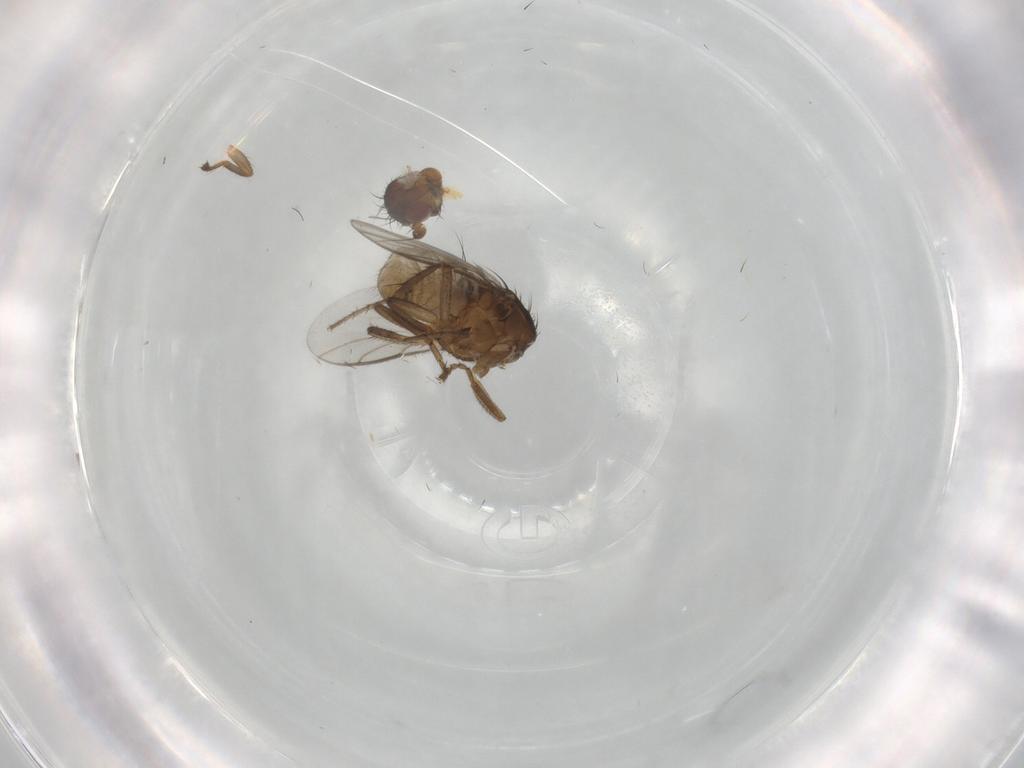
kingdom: Animalia
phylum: Arthropoda
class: Insecta
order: Diptera
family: Sphaeroceridae
